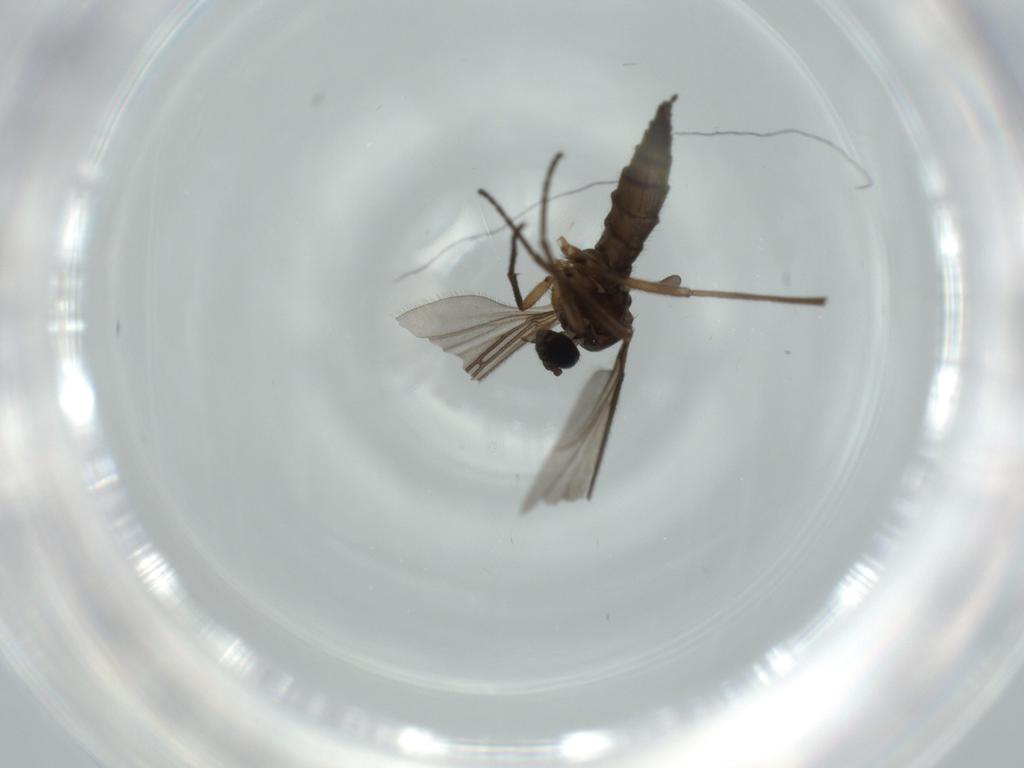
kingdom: Animalia
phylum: Arthropoda
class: Insecta
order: Diptera
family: Sciaridae
